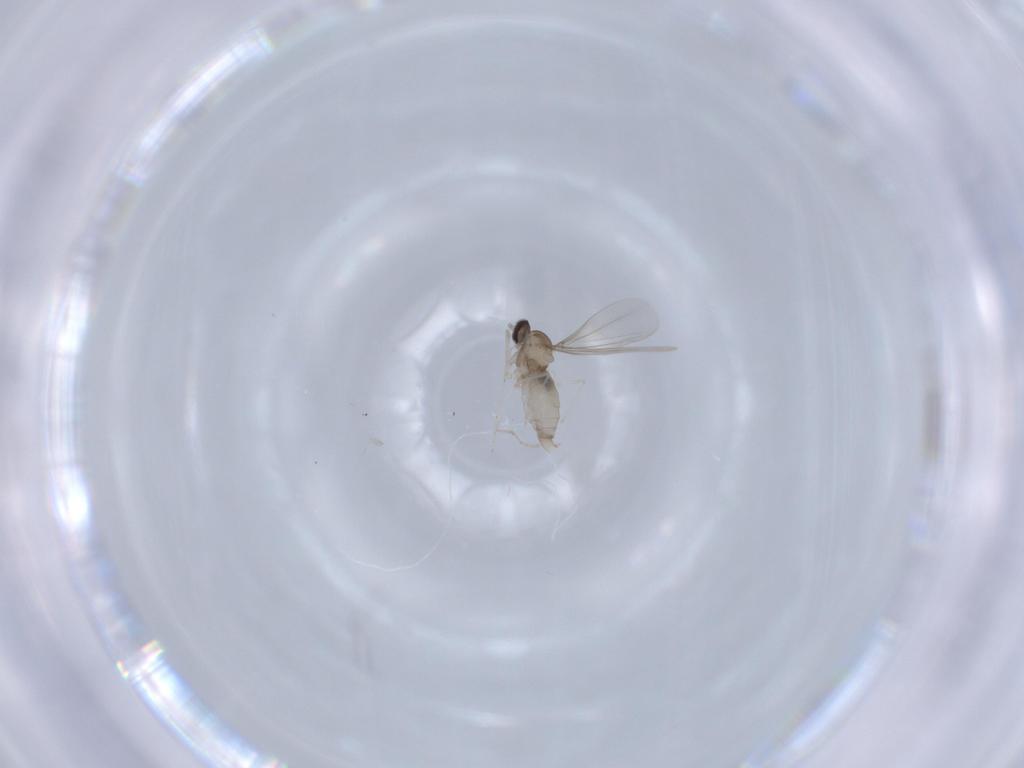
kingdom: Animalia
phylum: Arthropoda
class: Insecta
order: Diptera
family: Cecidomyiidae
